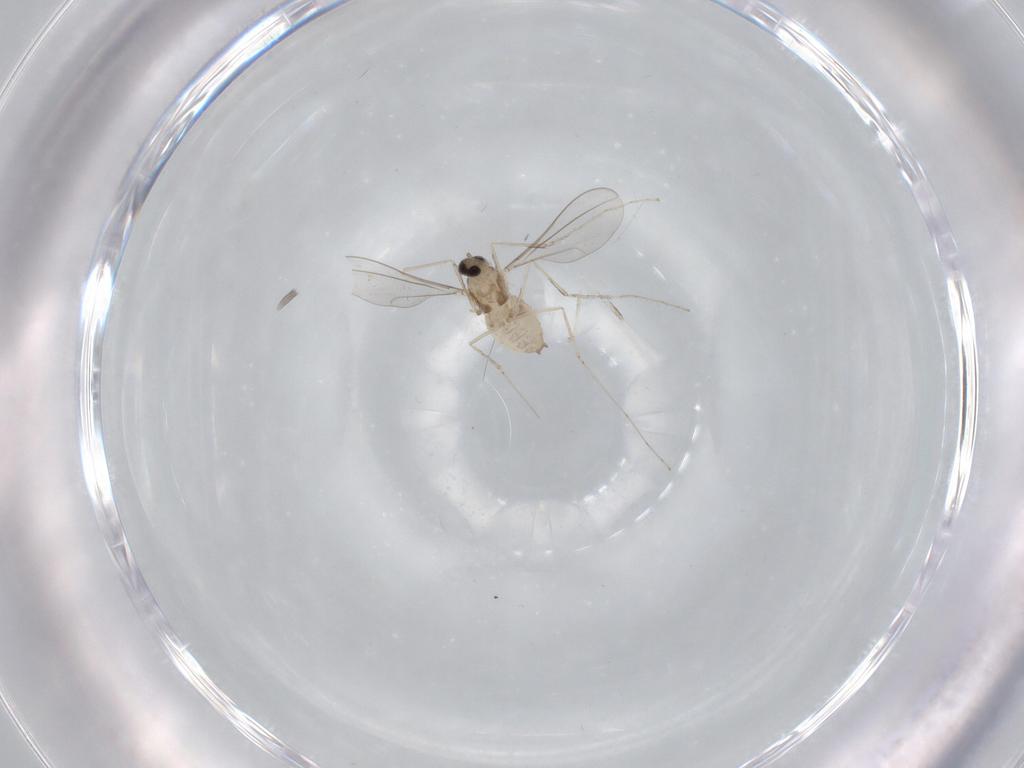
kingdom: Animalia
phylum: Arthropoda
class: Insecta
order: Diptera
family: Cecidomyiidae
